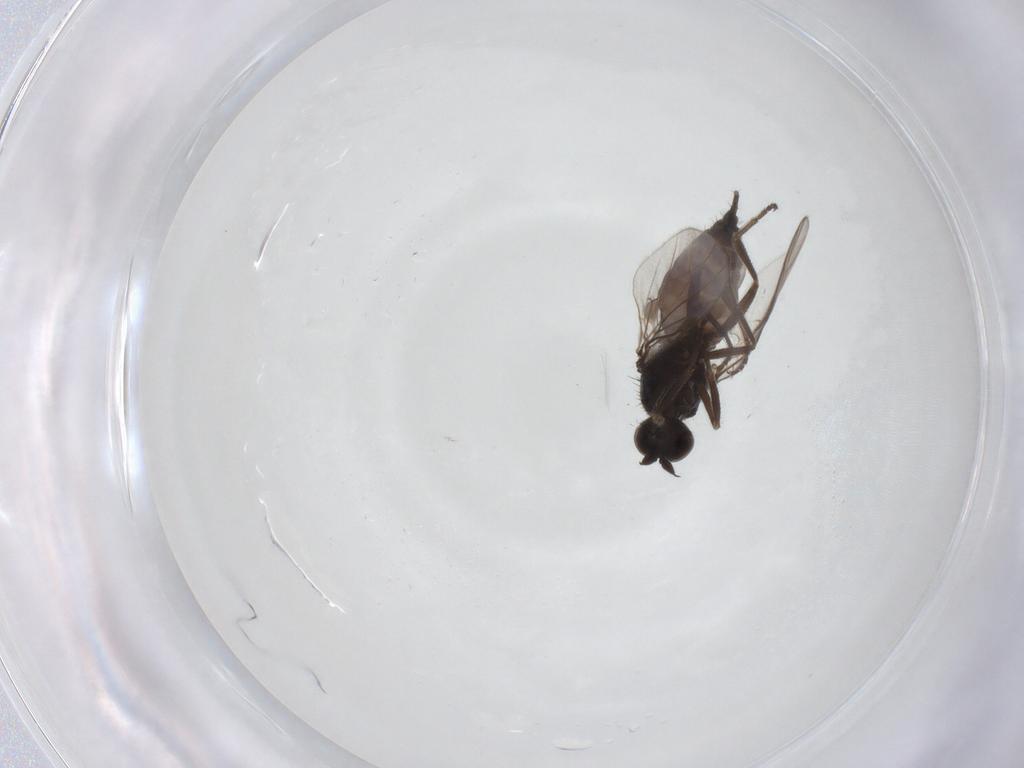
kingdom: Animalia
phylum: Arthropoda
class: Insecta
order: Diptera
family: Hybotidae
